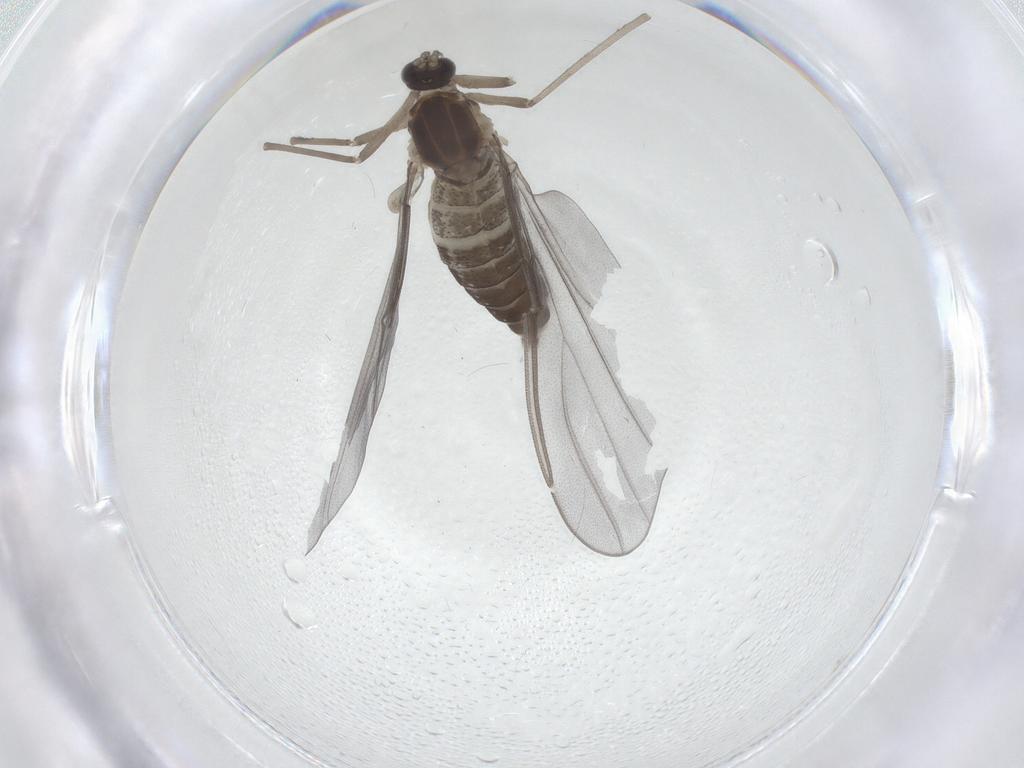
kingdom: Animalia
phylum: Arthropoda
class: Insecta
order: Diptera
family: Cecidomyiidae
